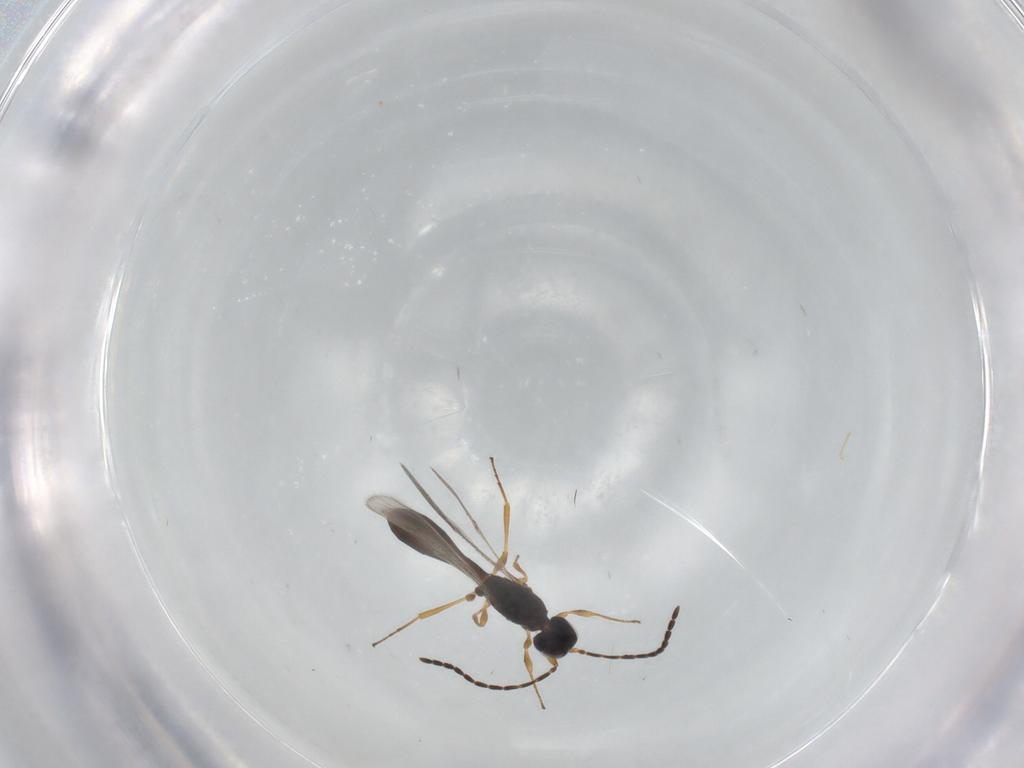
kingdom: Animalia
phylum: Arthropoda
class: Insecta
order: Hymenoptera
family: Scelionidae
